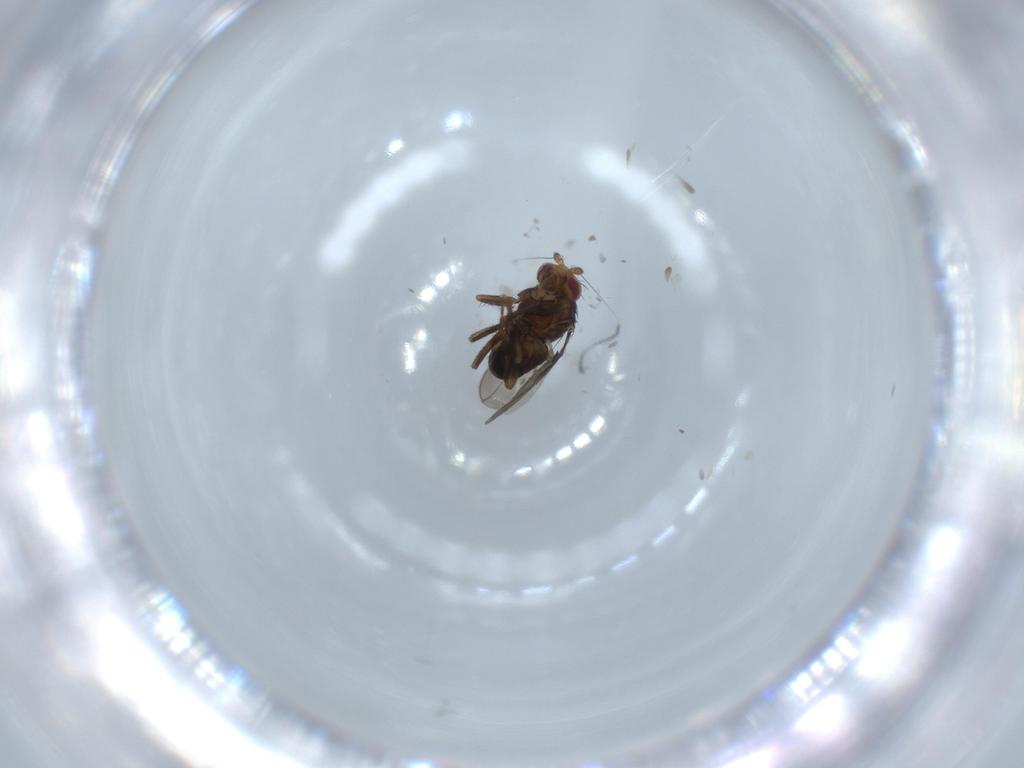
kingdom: Animalia
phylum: Arthropoda
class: Insecta
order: Diptera
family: Sphaeroceridae
